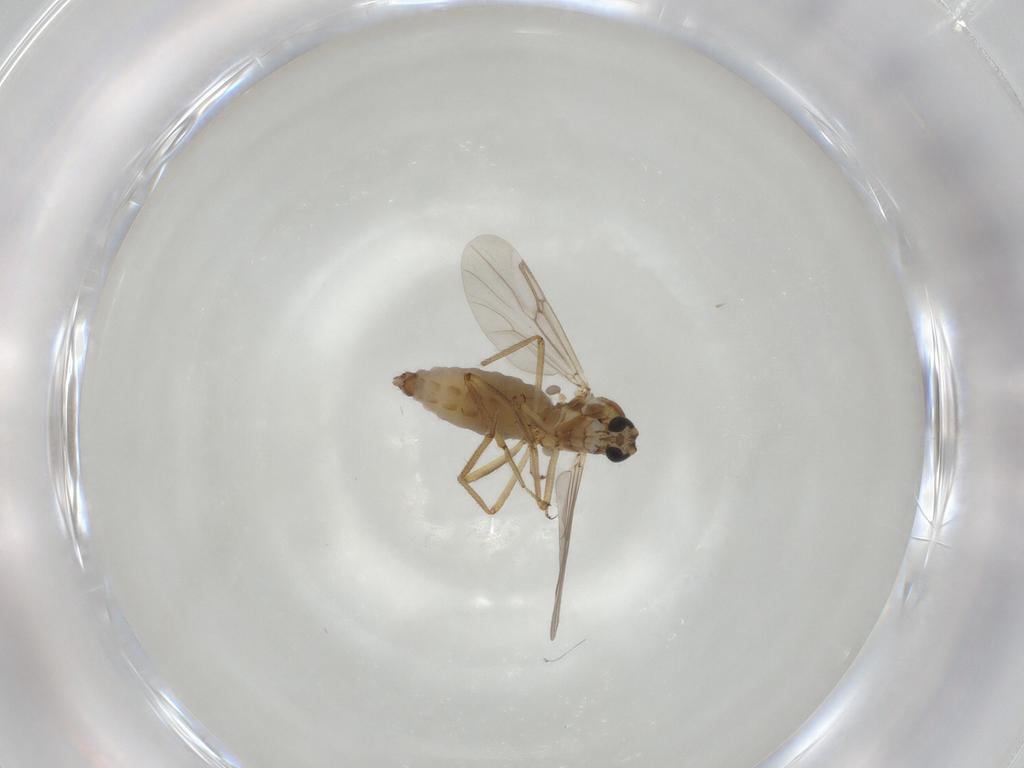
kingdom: Animalia
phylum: Arthropoda
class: Insecta
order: Diptera
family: Ceratopogonidae
